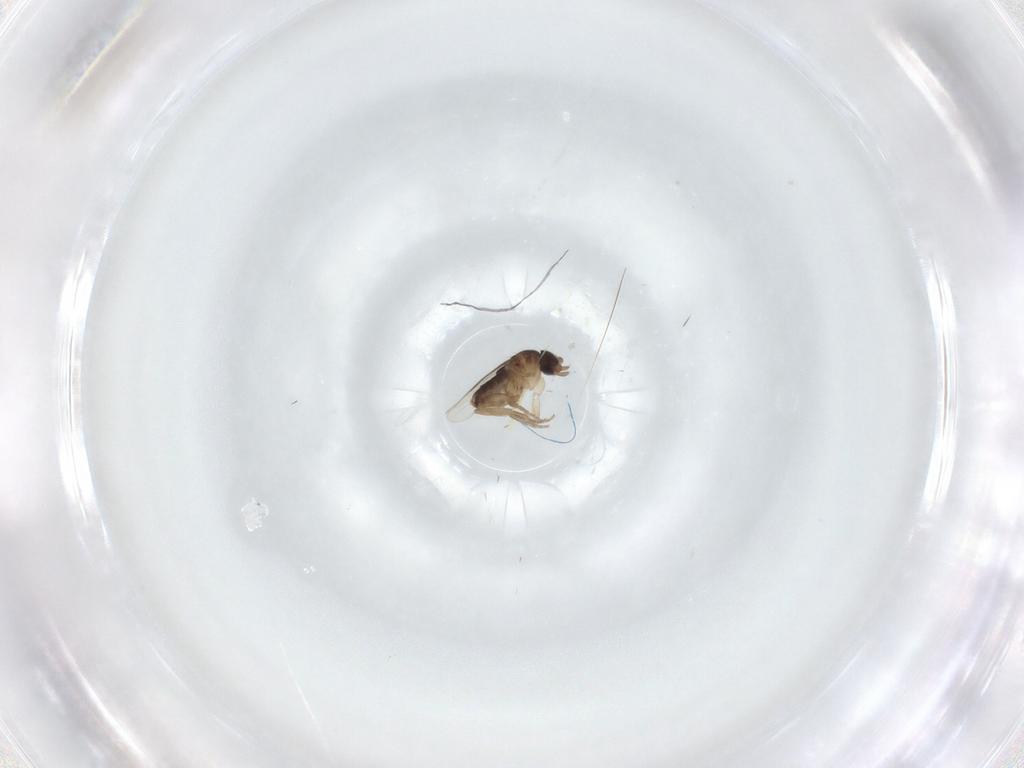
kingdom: Animalia
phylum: Arthropoda
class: Insecta
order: Diptera
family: Phoridae
